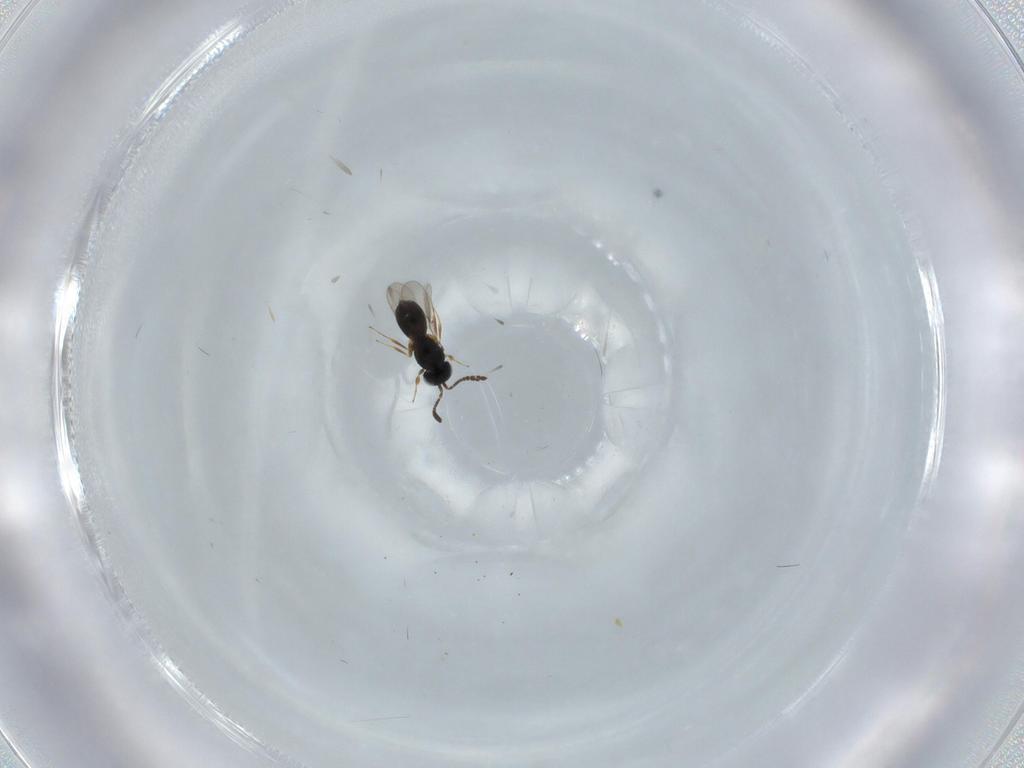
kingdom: Animalia
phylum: Arthropoda
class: Insecta
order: Hymenoptera
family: Scelionidae
